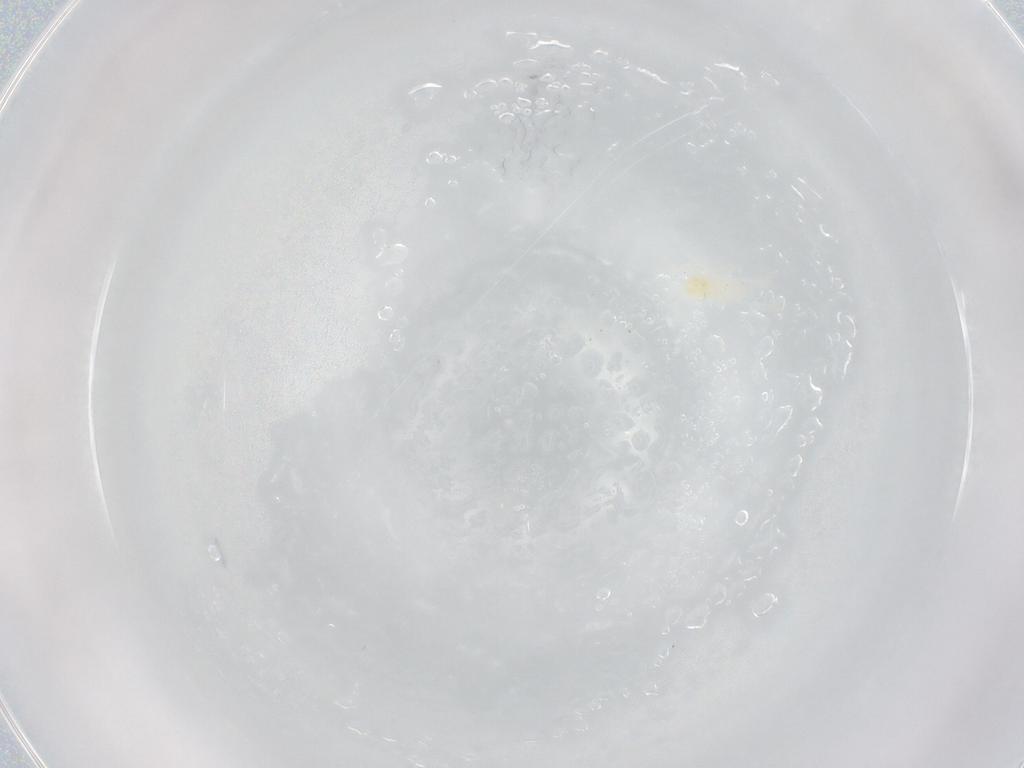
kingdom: Animalia
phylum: Arthropoda
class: Arachnida
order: Trombidiformes
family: Rhagidiidae
